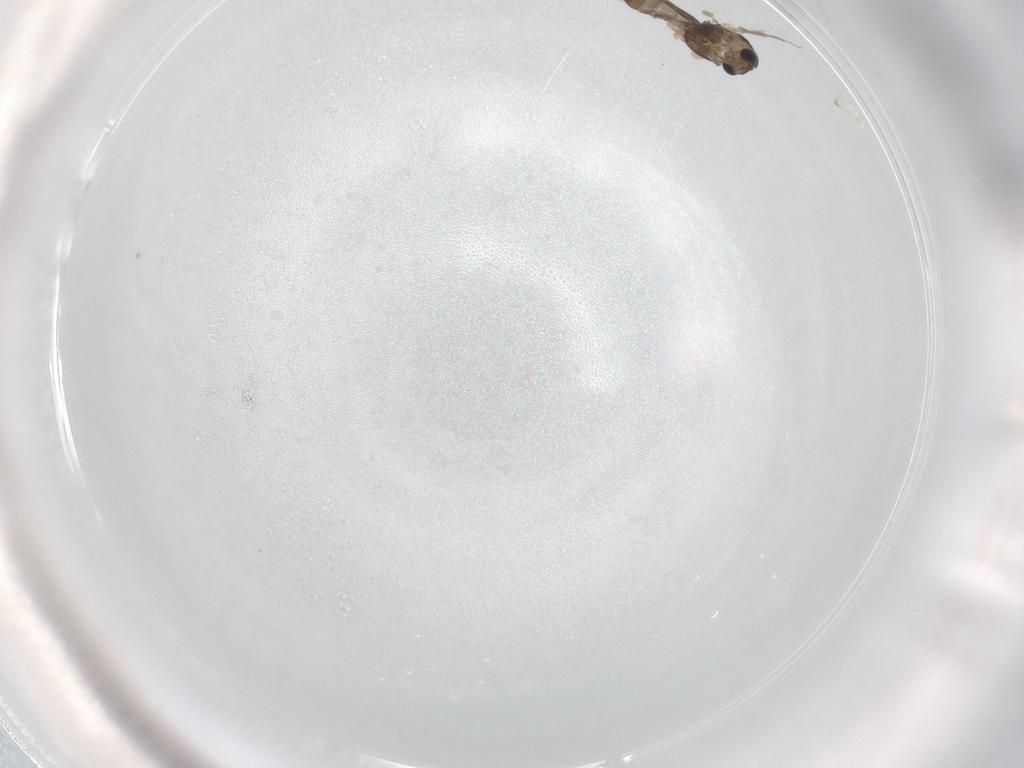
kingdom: Animalia
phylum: Arthropoda
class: Insecta
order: Diptera
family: Chironomidae
